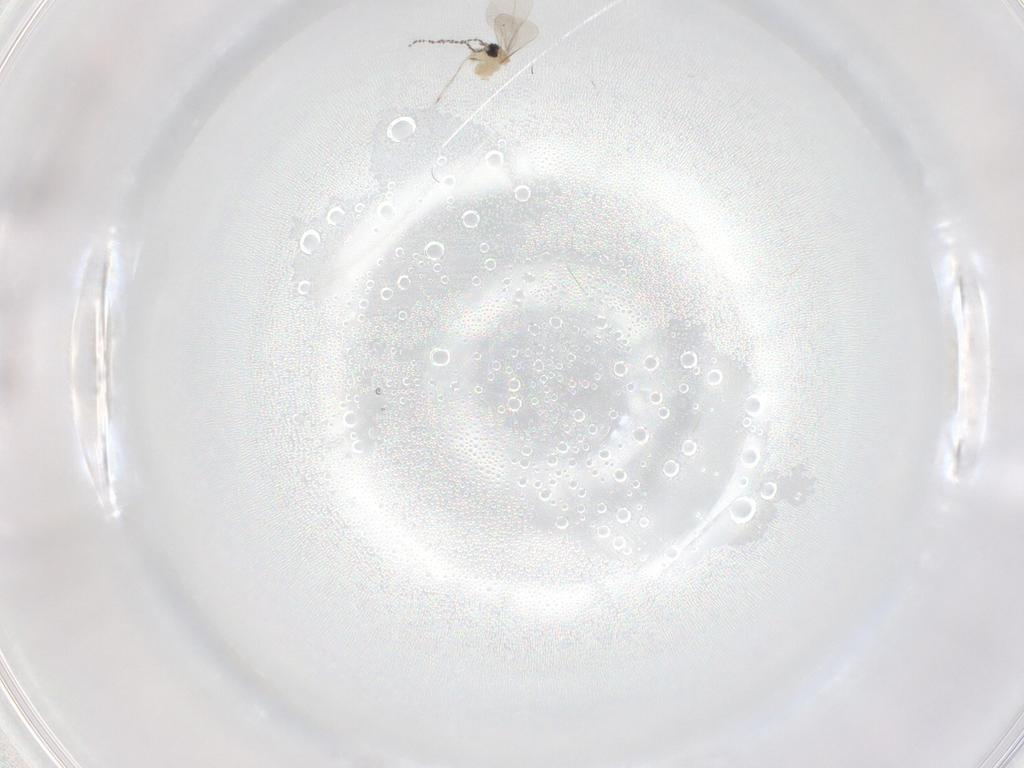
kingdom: Animalia
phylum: Arthropoda
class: Insecta
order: Diptera
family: Cecidomyiidae
